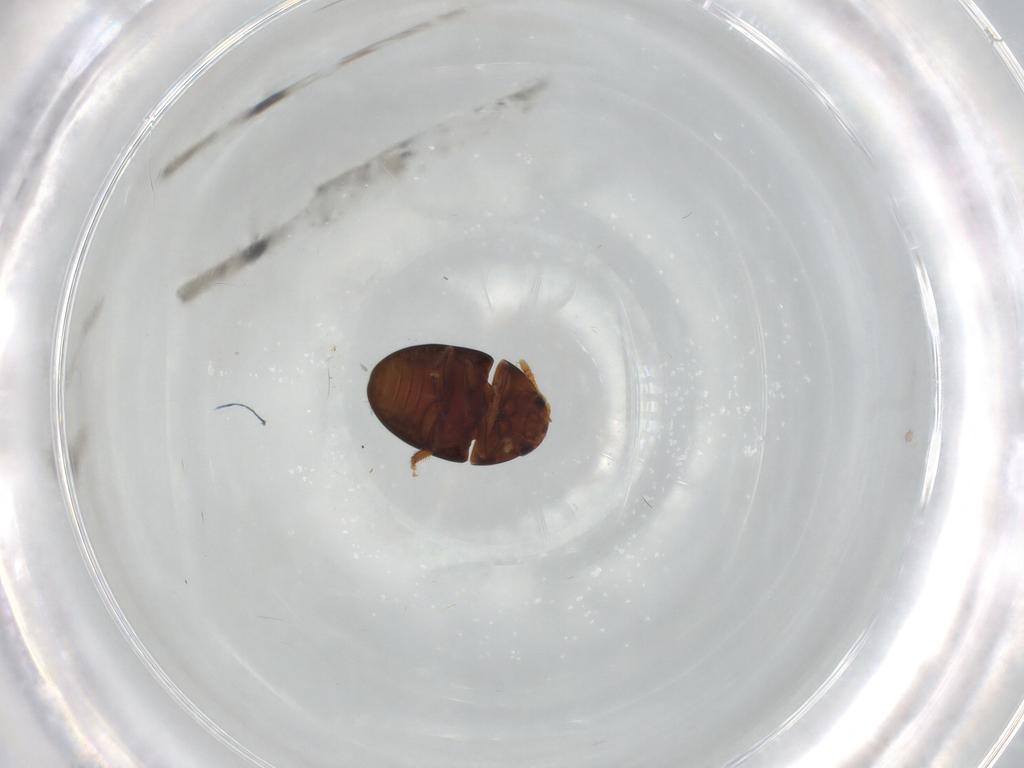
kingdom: Animalia
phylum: Arthropoda
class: Insecta
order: Coleoptera
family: Phalacridae
